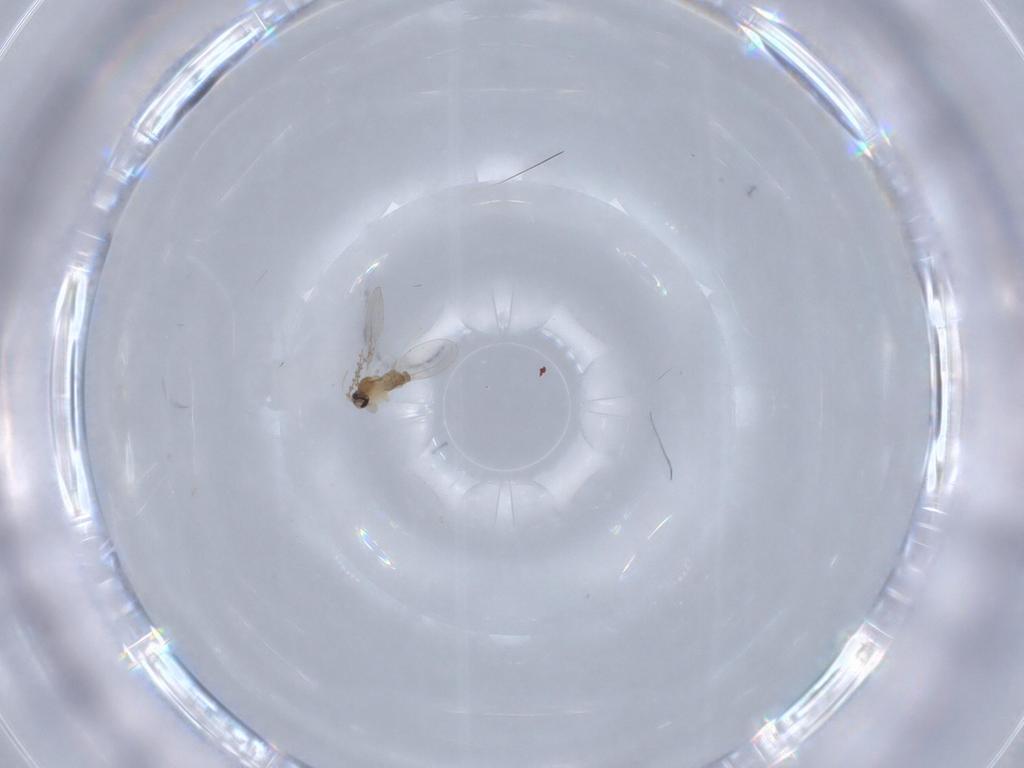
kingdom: Animalia
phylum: Arthropoda
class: Insecta
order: Diptera
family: Cecidomyiidae
